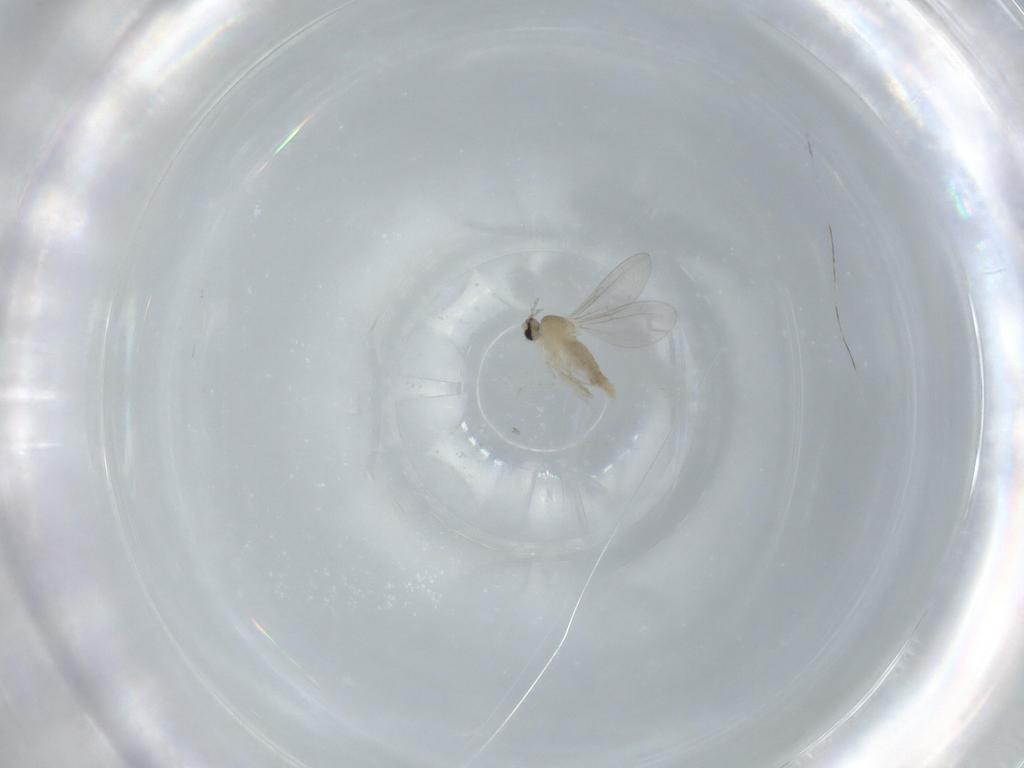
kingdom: Animalia
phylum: Arthropoda
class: Insecta
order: Diptera
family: Cecidomyiidae
